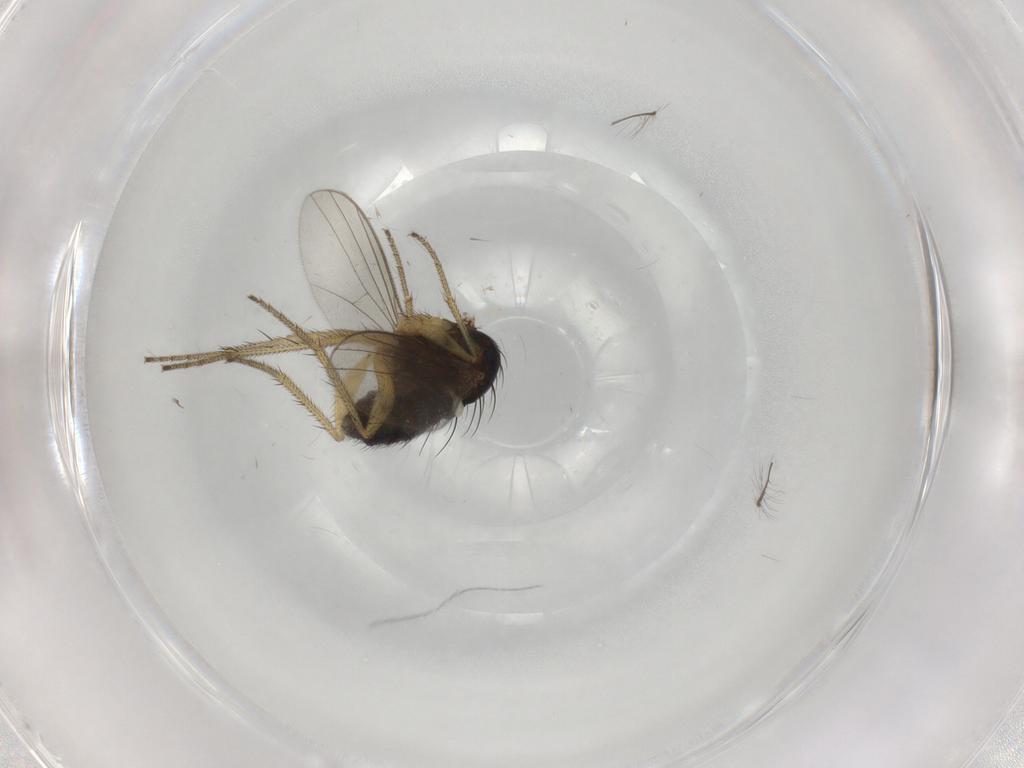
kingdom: Animalia
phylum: Arthropoda
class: Insecta
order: Diptera
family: Dolichopodidae
